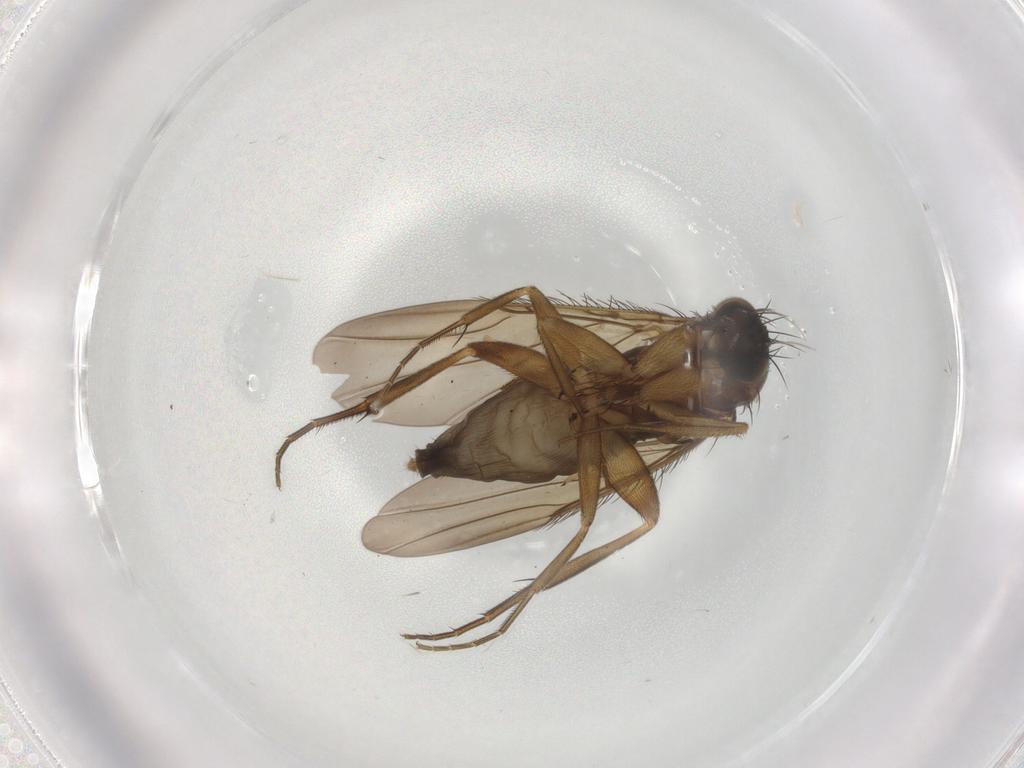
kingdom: Animalia
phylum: Arthropoda
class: Insecta
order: Diptera
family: Phoridae
